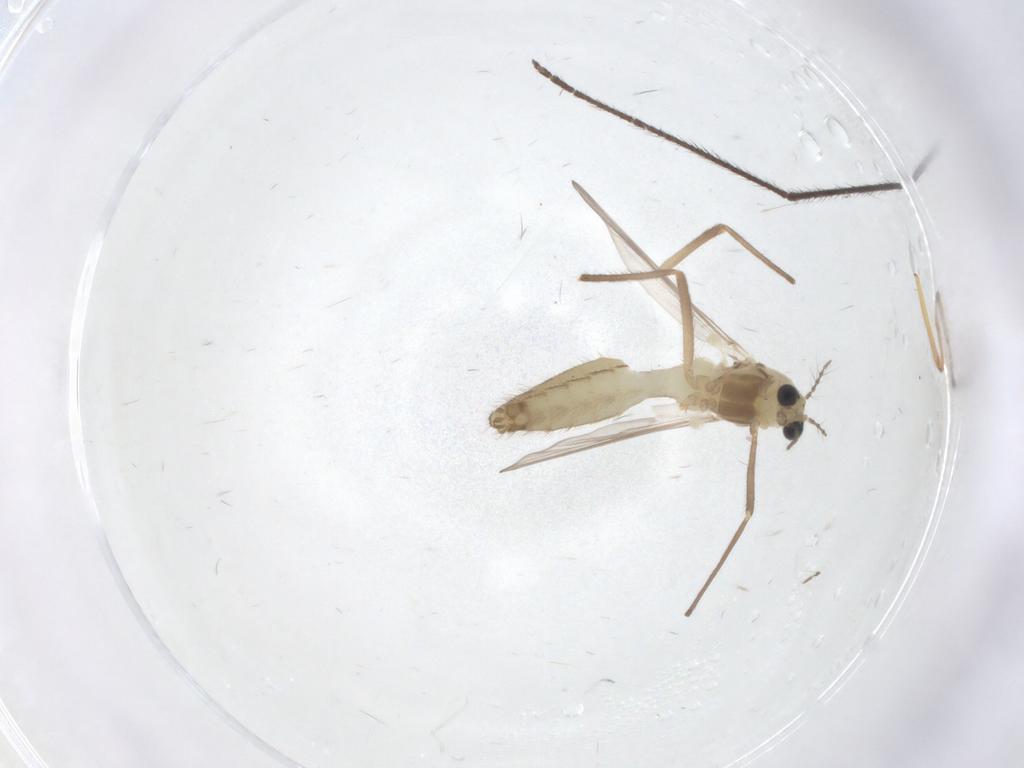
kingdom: Animalia
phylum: Arthropoda
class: Insecta
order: Diptera
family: Chironomidae
